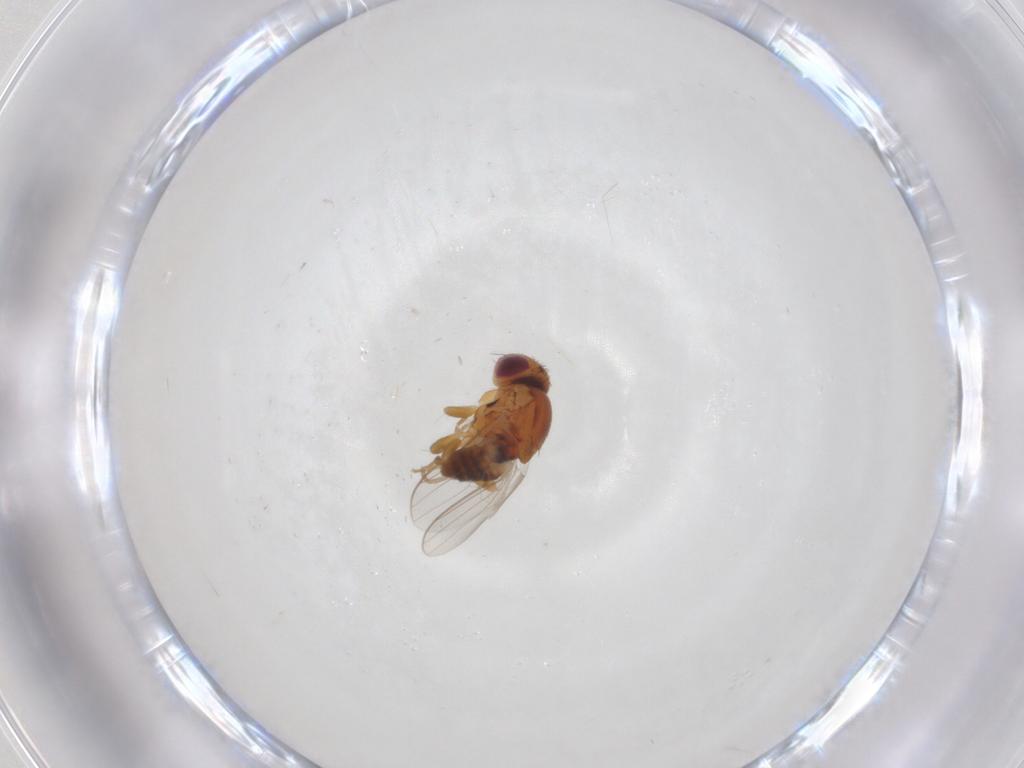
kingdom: Animalia
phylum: Arthropoda
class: Insecta
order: Diptera
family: Chloropidae
